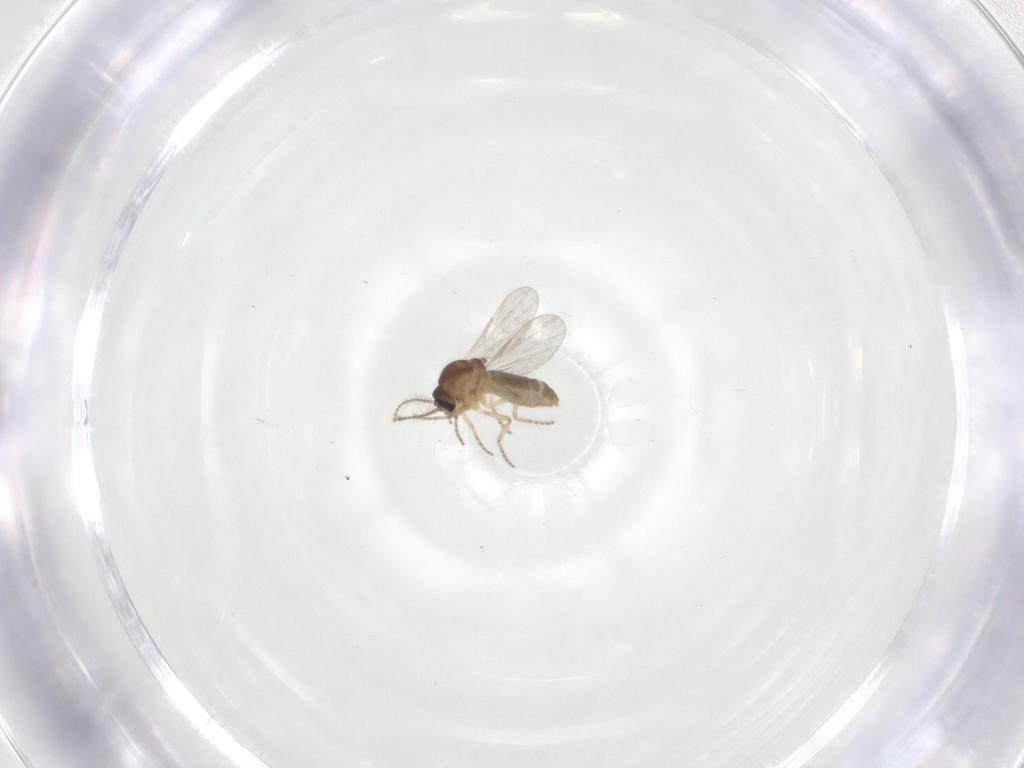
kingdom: Animalia
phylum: Arthropoda
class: Insecta
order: Diptera
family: Ceratopogonidae
